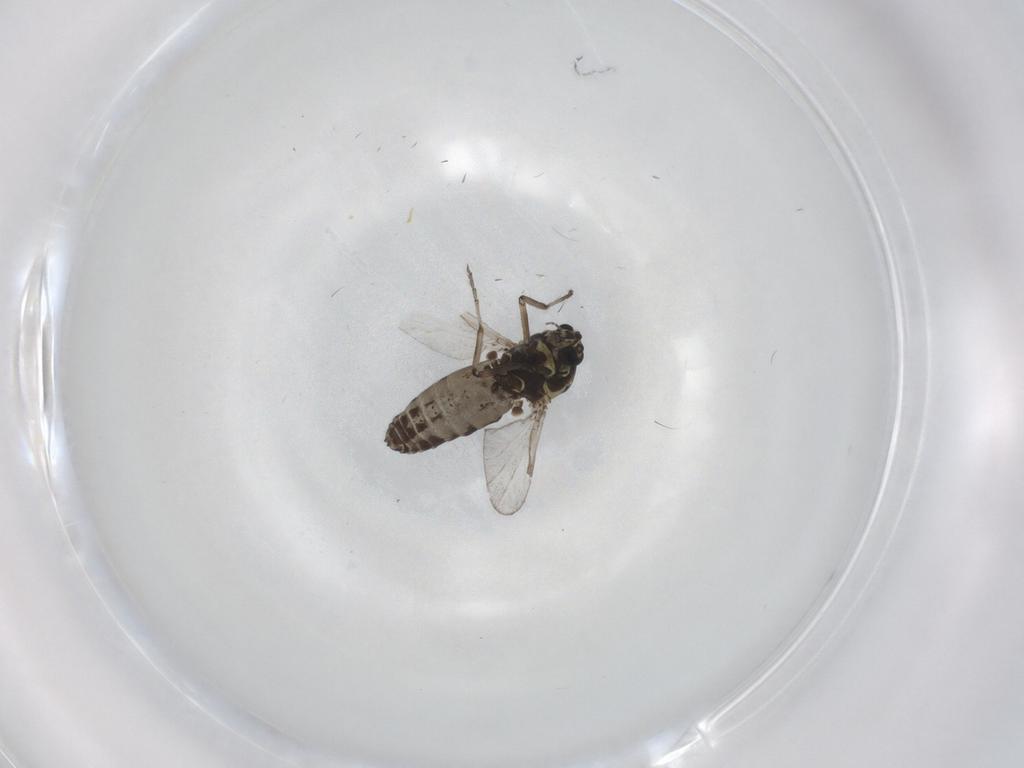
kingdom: Animalia
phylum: Arthropoda
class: Insecta
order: Diptera
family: Ceratopogonidae
